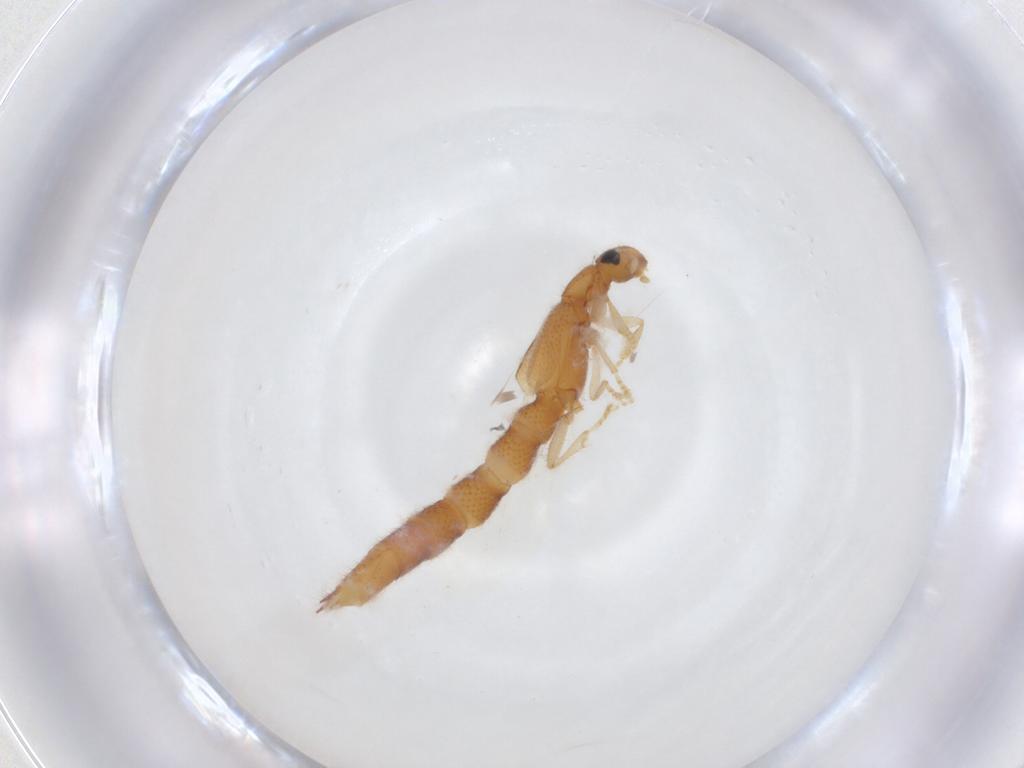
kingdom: Animalia
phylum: Arthropoda
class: Insecta
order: Coleoptera
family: Staphylinidae
